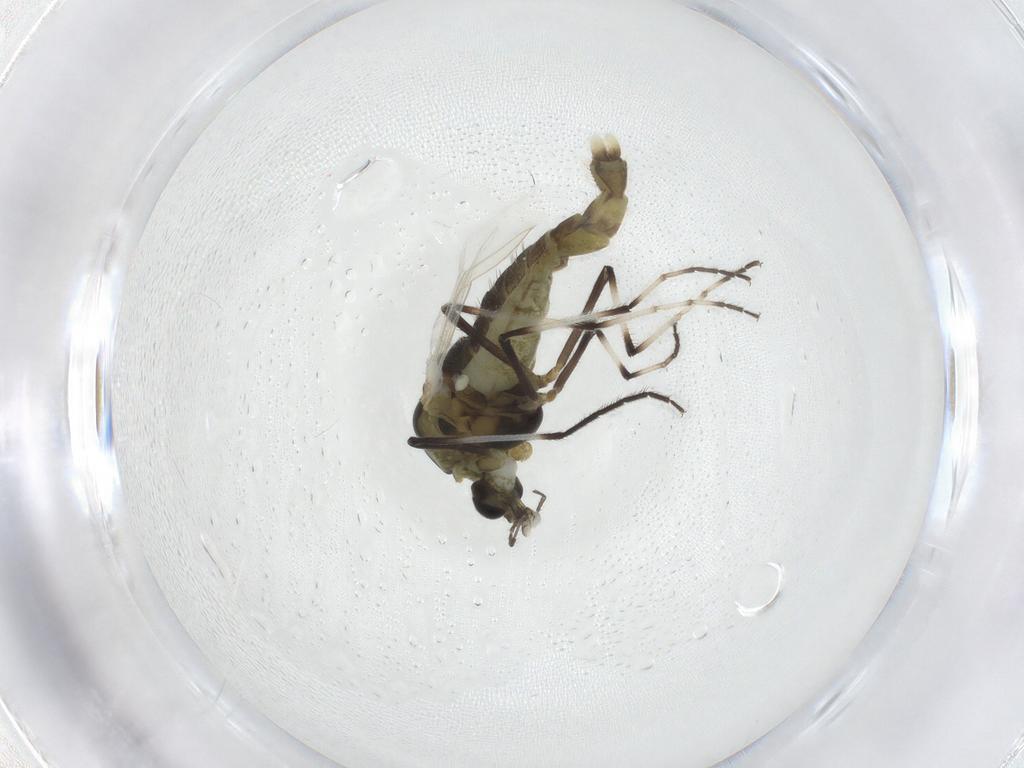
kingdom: Animalia
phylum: Arthropoda
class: Insecta
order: Diptera
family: Chironomidae
